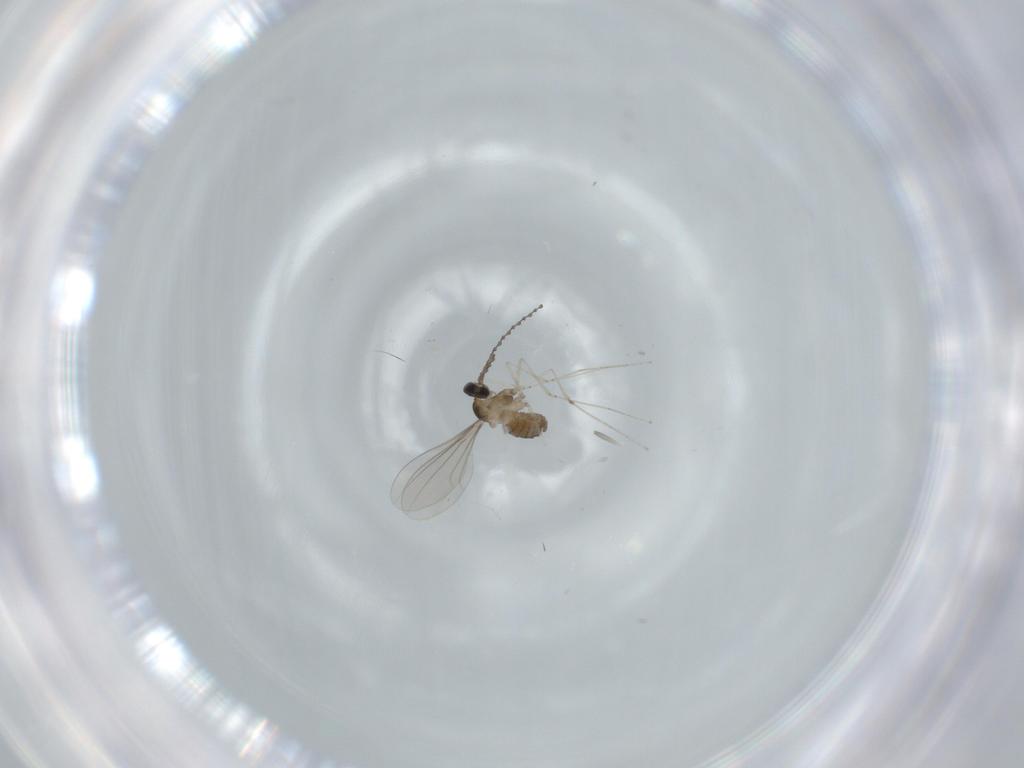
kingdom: Animalia
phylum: Arthropoda
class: Insecta
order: Diptera
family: Cecidomyiidae
